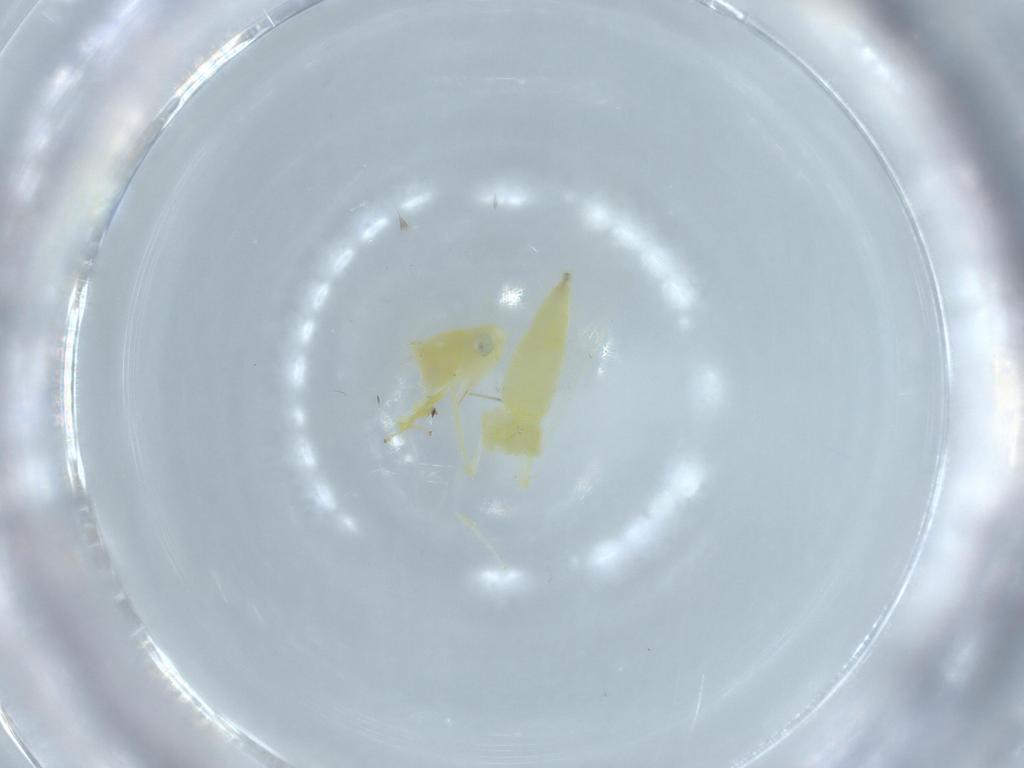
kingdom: Animalia
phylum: Arthropoda
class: Insecta
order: Hemiptera
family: Cicadellidae
